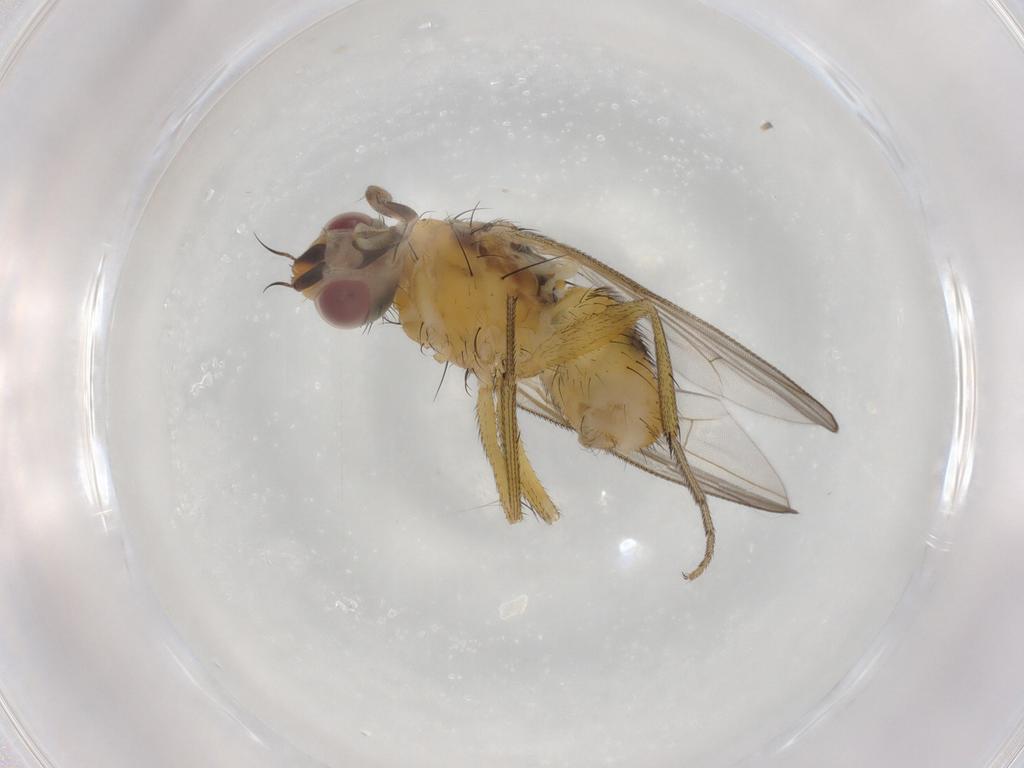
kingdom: Animalia
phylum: Arthropoda
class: Insecta
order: Diptera
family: Muscidae
